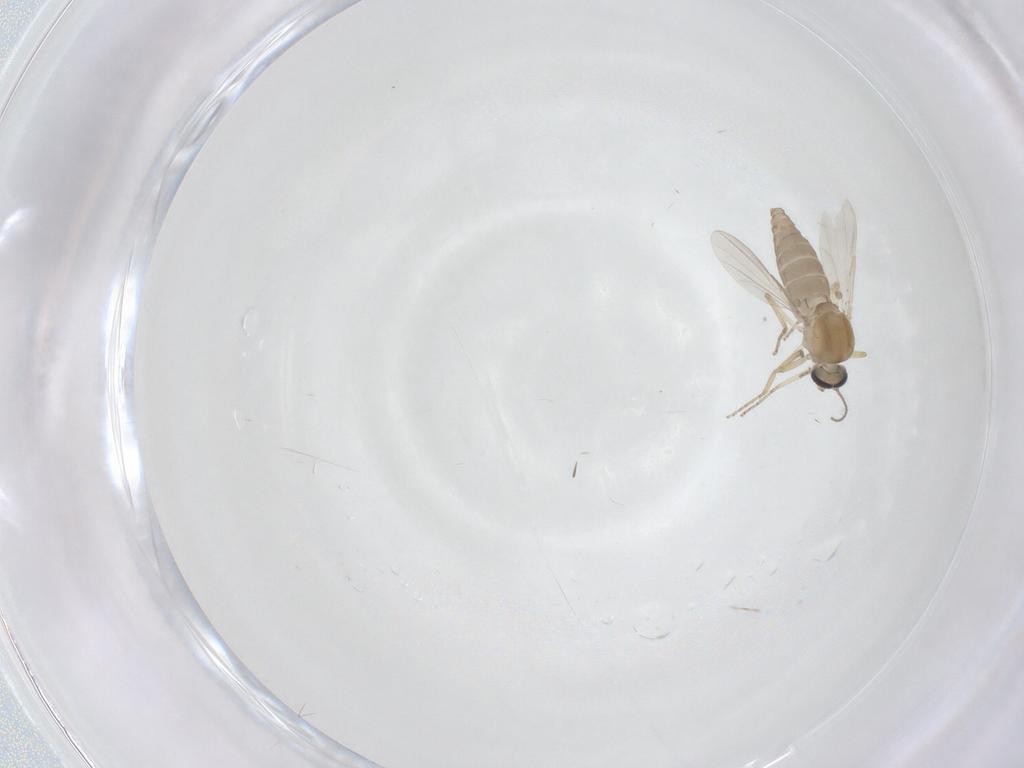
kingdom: Animalia
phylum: Arthropoda
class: Insecta
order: Diptera
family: Ceratopogonidae
